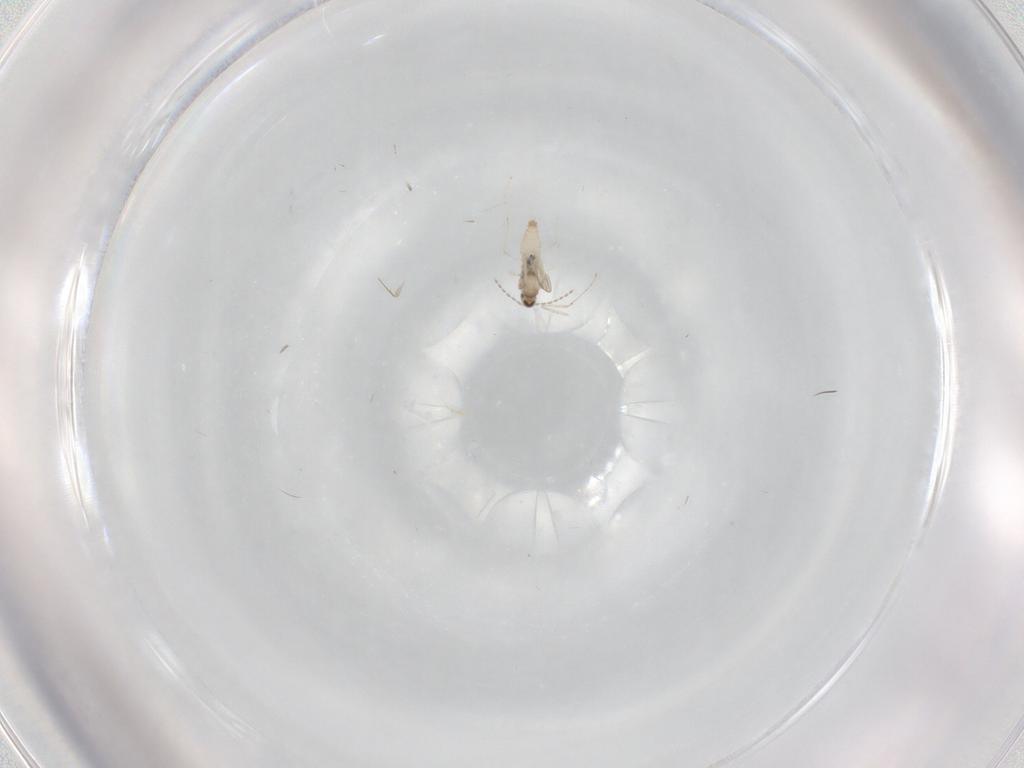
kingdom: Animalia
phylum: Arthropoda
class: Insecta
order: Diptera
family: Cecidomyiidae
